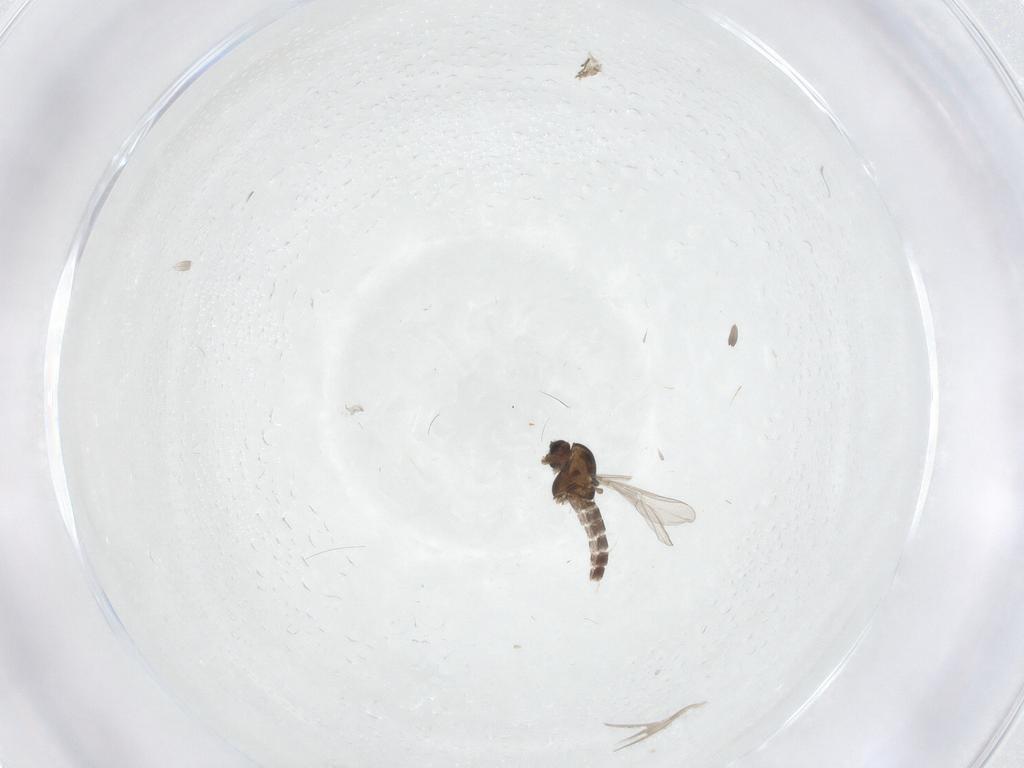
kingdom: Animalia
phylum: Arthropoda
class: Insecta
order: Diptera
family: Chironomidae
